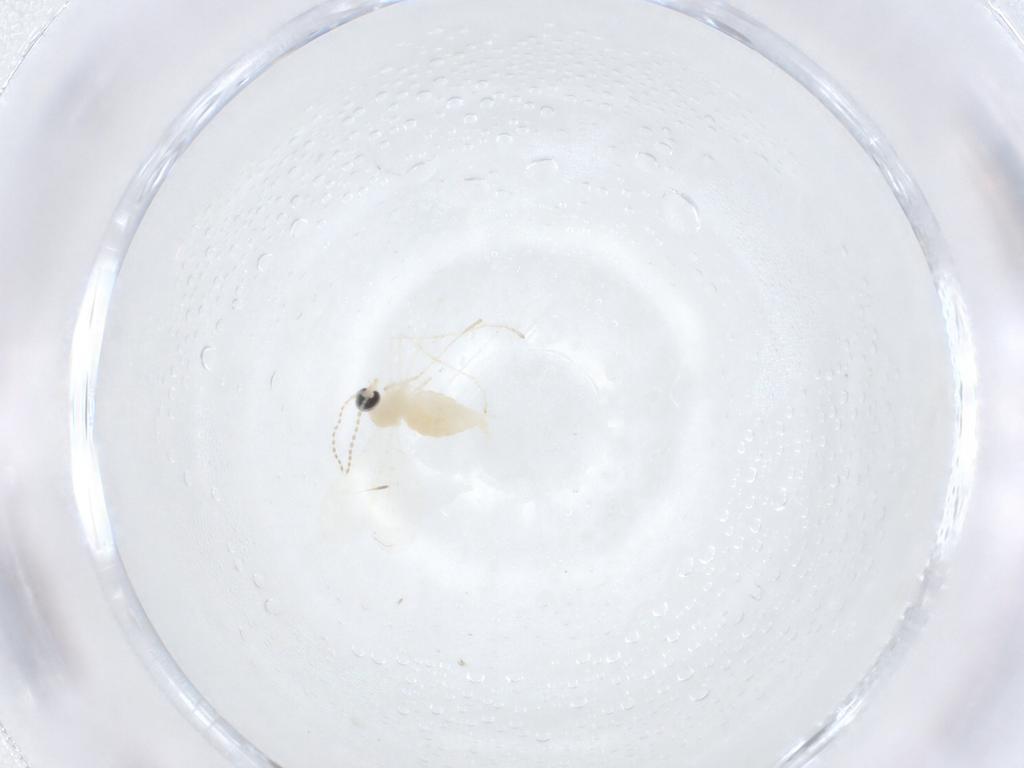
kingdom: Animalia
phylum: Arthropoda
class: Insecta
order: Diptera
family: Cecidomyiidae
